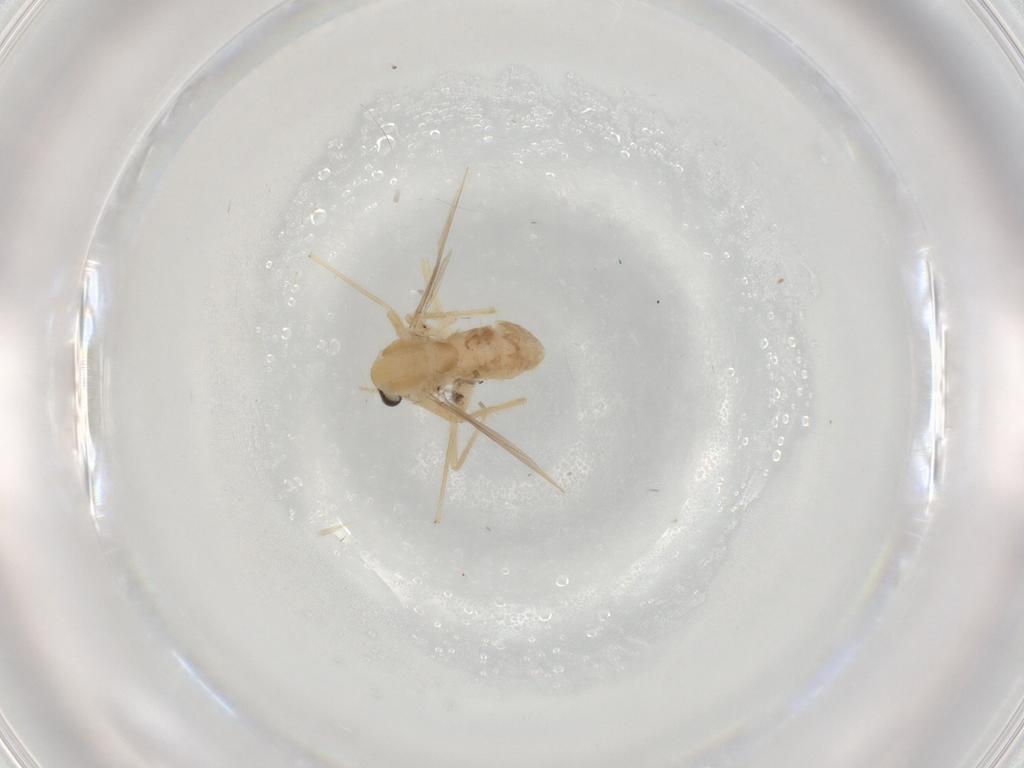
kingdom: Animalia
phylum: Arthropoda
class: Insecta
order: Diptera
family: Chironomidae
